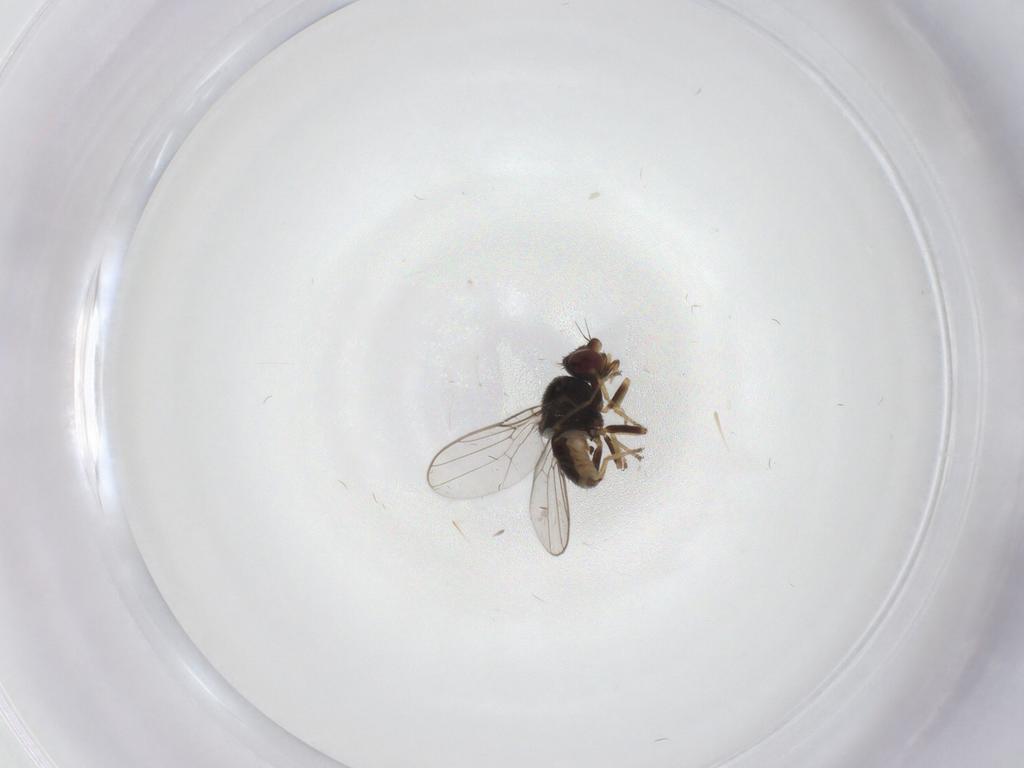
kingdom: Animalia
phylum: Arthropoda
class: Insecta
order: Diptera
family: Chloropidae
